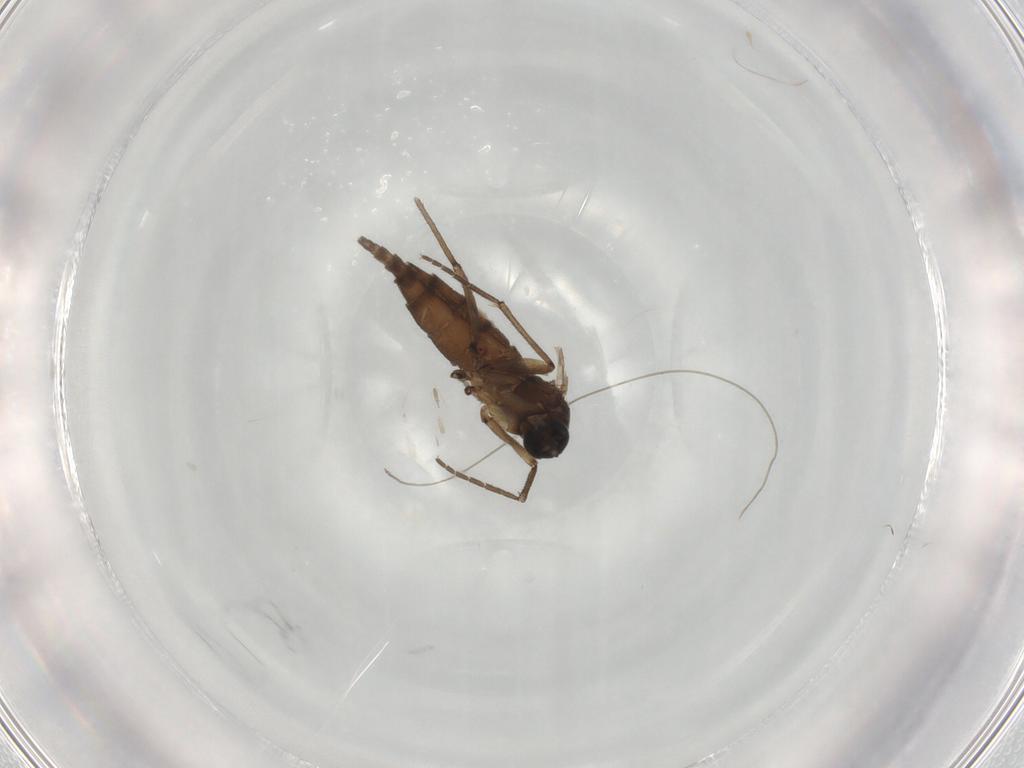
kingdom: Animalia
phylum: Arthropoda
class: Insecta
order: Diptera
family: Sciaridae
